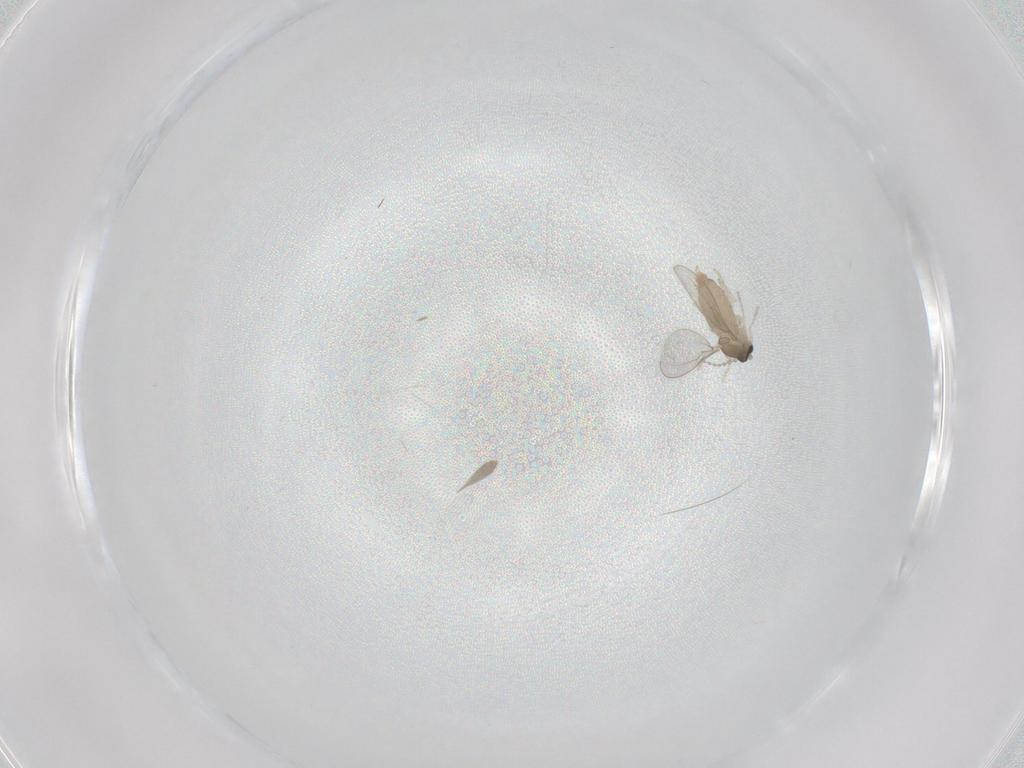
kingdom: Animalia
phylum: Arthropoda
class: Insecta
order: Diptera
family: Cecidomyiidae
